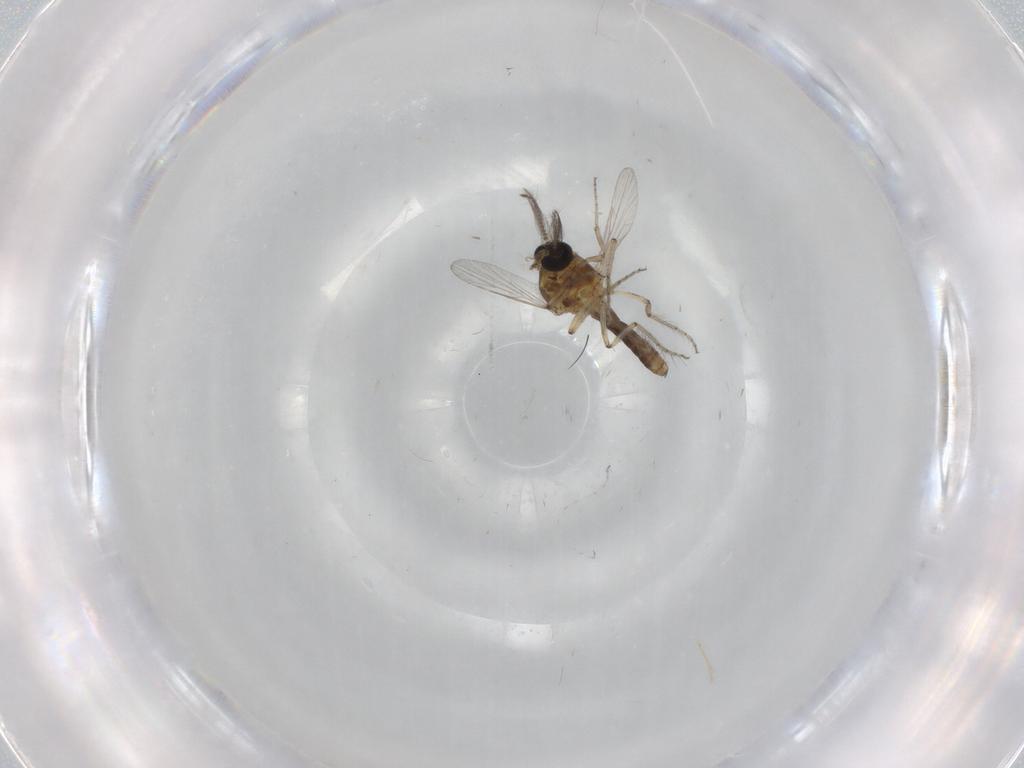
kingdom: Animalia
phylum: Arthropoda
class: Insecta
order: Diptera
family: Ceratopogonidae
